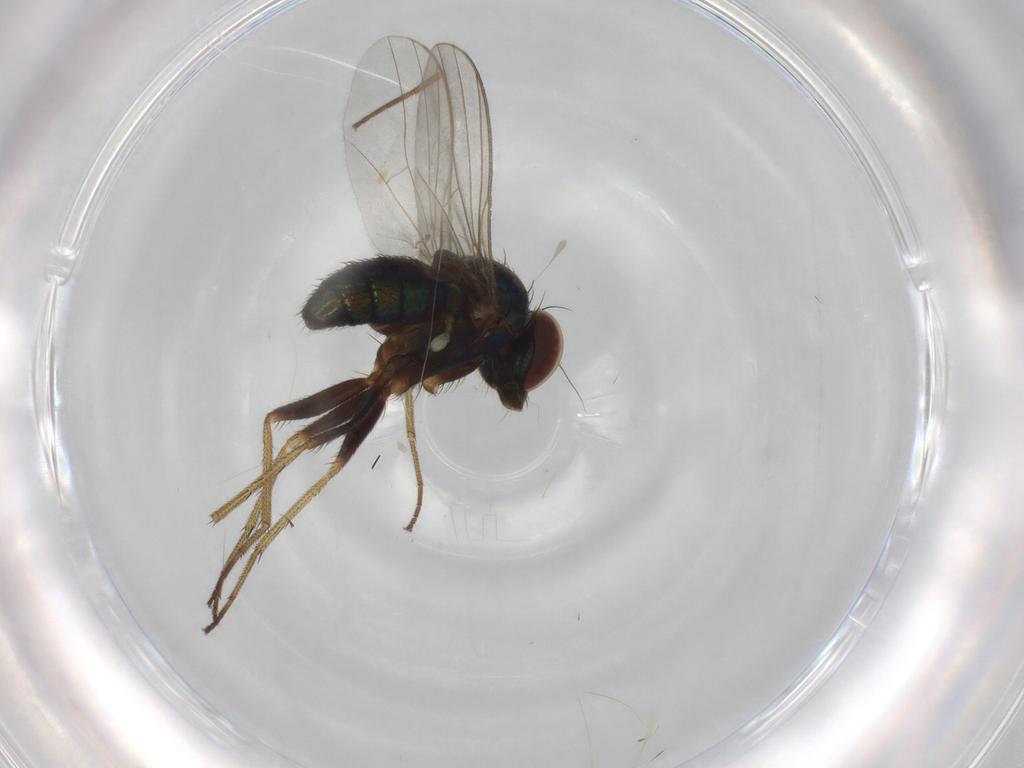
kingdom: Animalia
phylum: Arthropoda
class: Insecta
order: Diptera
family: Dolichopodidae
